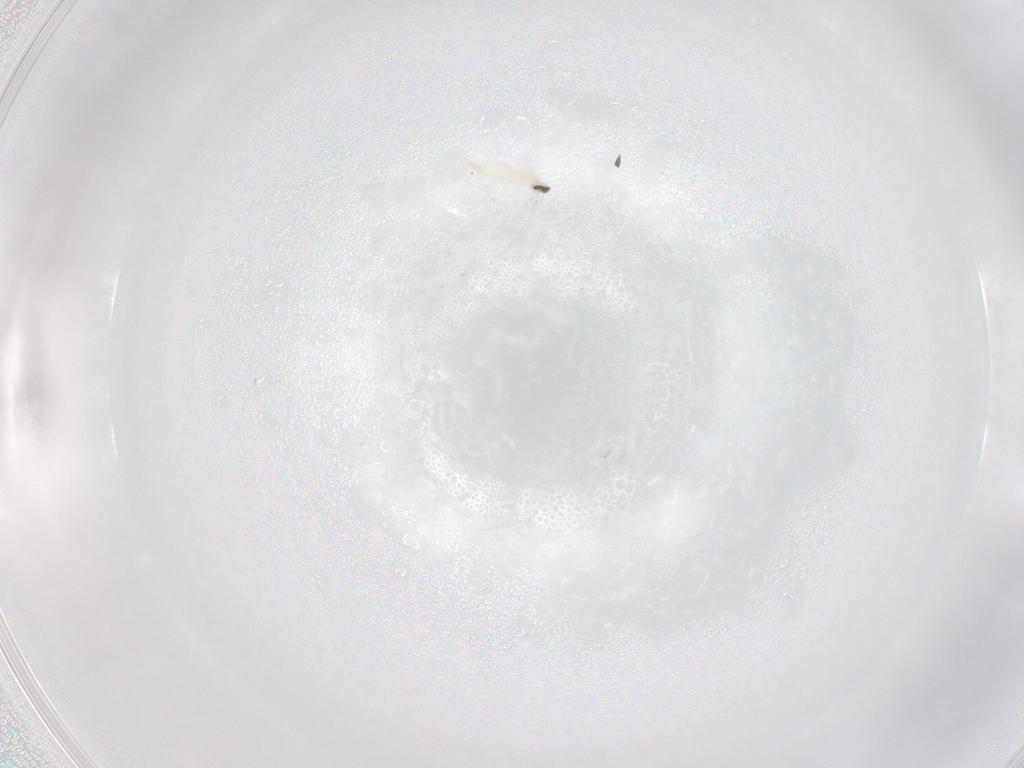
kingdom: Animalia
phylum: Arthropoda
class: Insecta
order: Diptera
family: Cecidomyiidae
